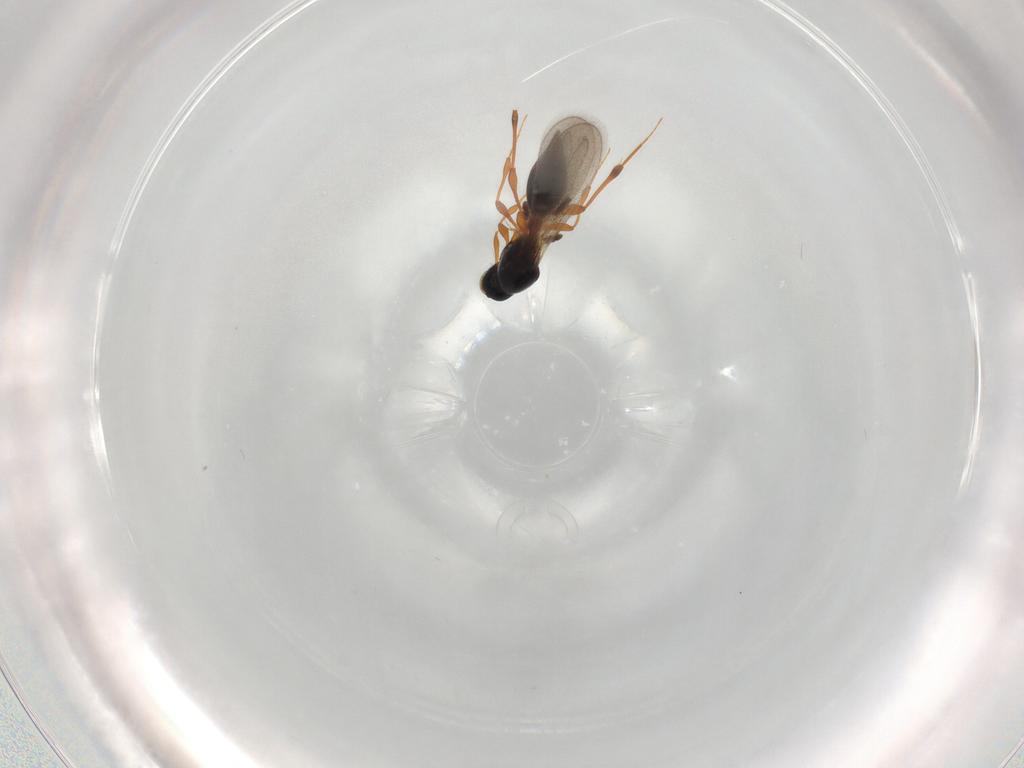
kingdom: Animalia
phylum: Arthropoda
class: Insecta
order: Hymenoptera
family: Platygastridae
